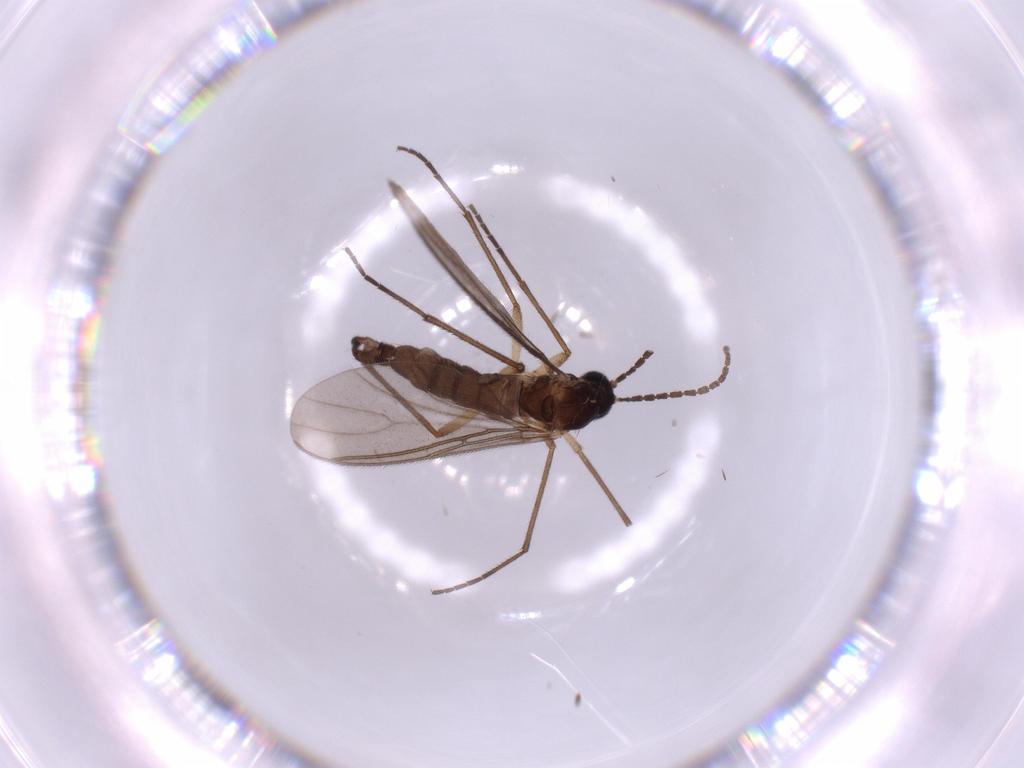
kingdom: Animalia
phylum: Arthropoda
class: Insecta
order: Diptera
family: Sciaridae
